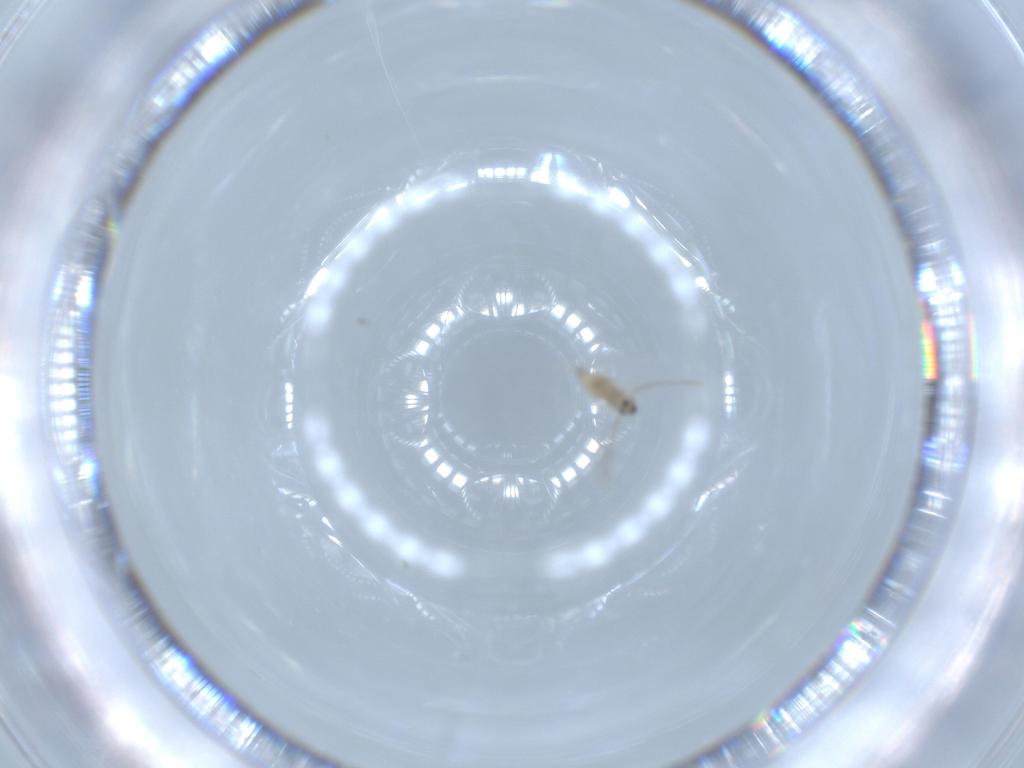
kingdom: Animalia
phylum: Arthropoda
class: Insecta
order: Diptera
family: Cecidomyiidae
